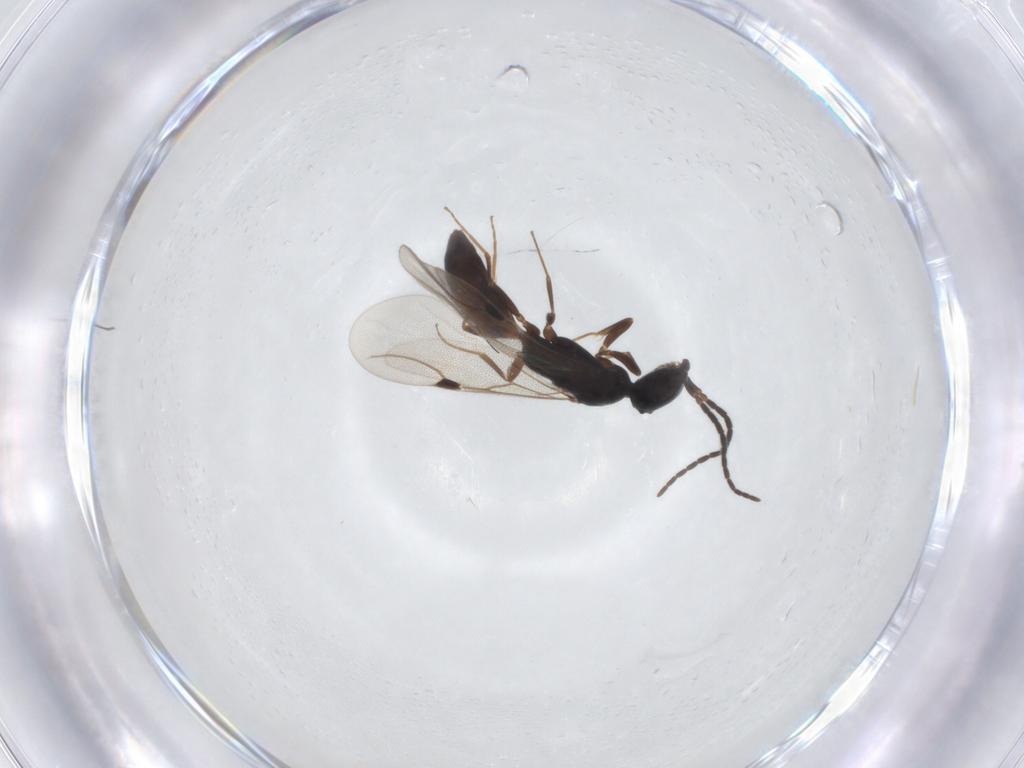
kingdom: Animalia
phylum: Arthropoda
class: Insecta
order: Hymenoptera
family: Bethylidae
